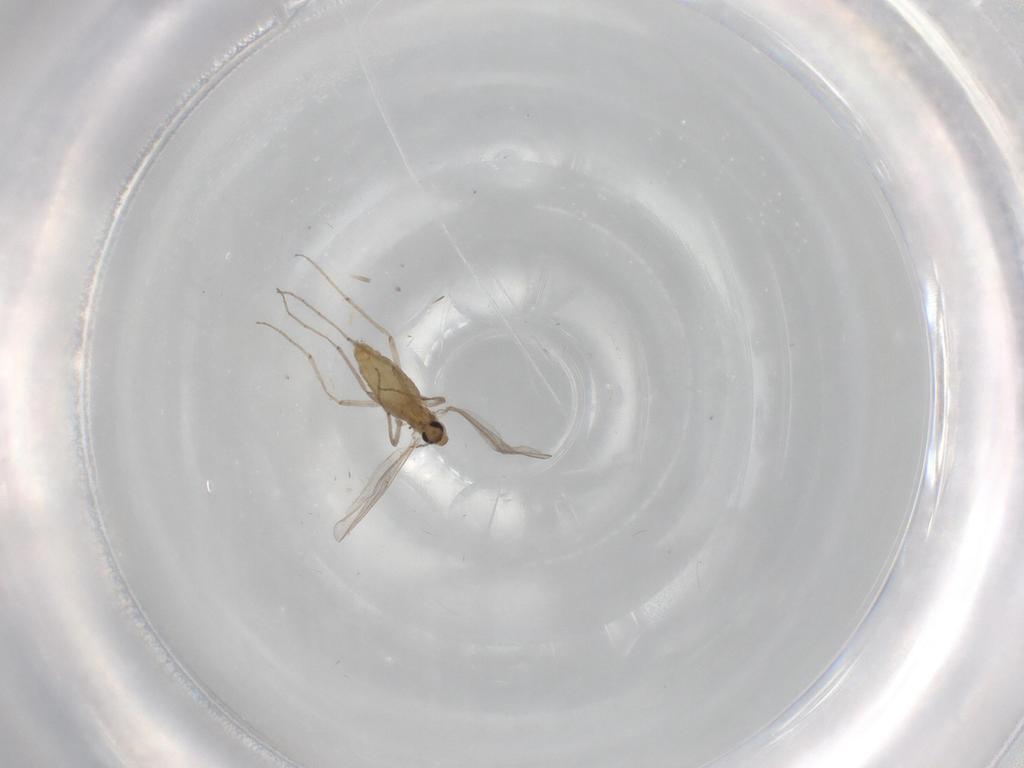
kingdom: Animalia
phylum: Arthropoda
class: Insecta
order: Diptera
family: Chironomidae
